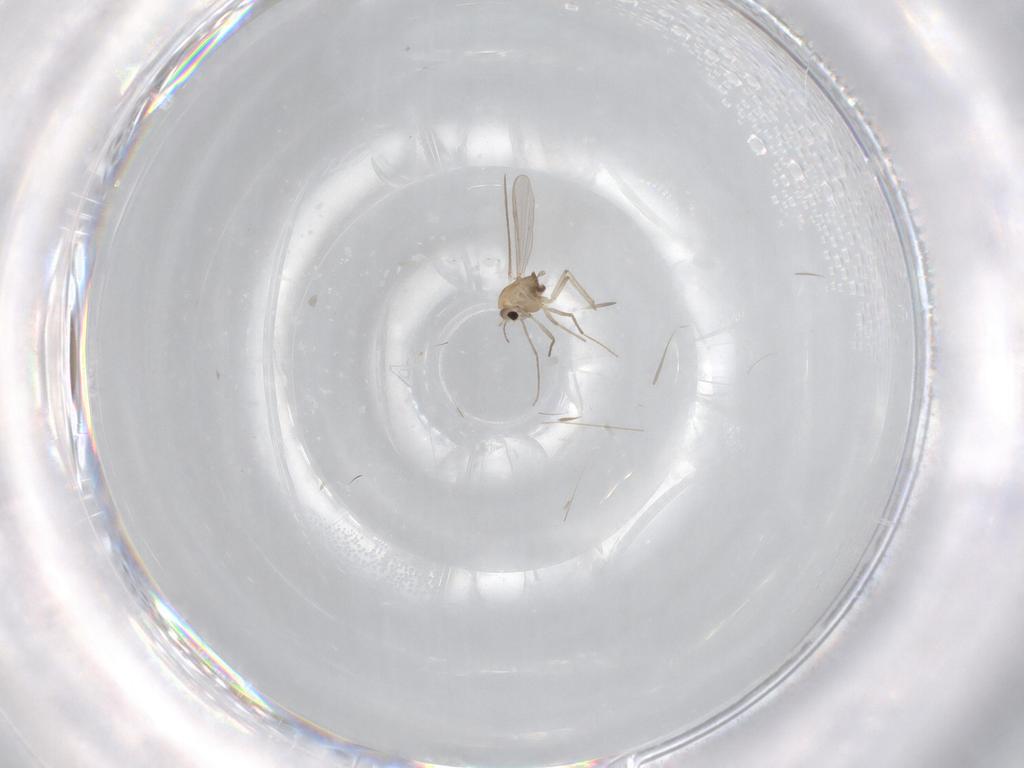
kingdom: Animalia
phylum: Arthropoda
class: Insecta
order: Diptera
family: Chironomidae
